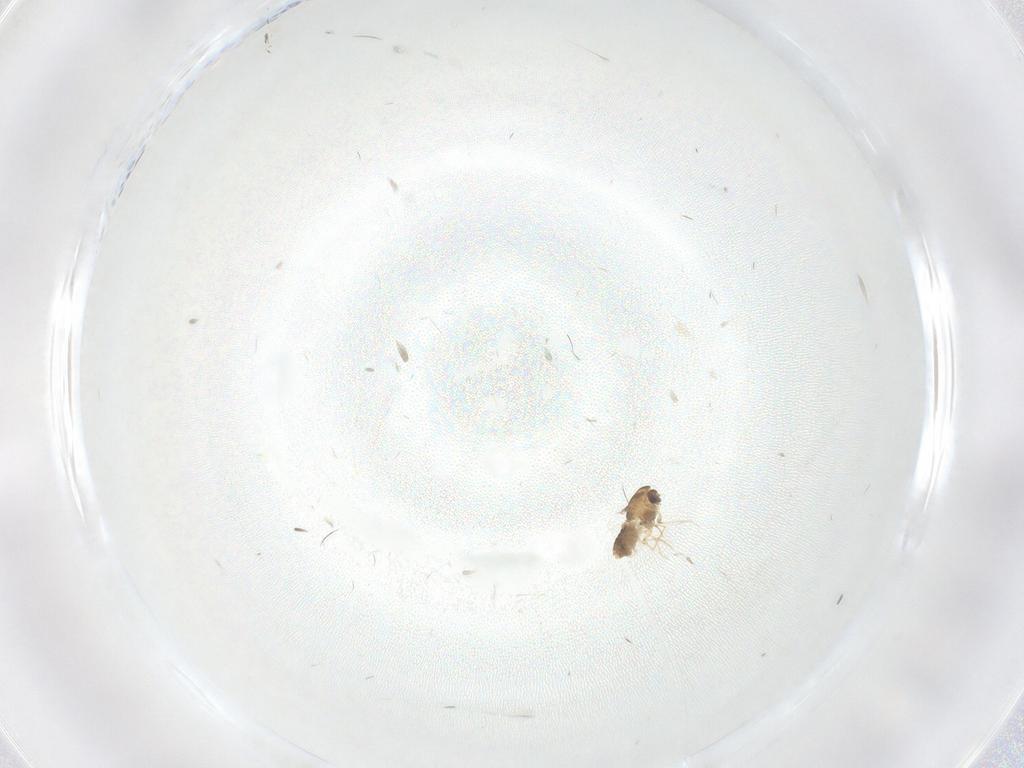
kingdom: Animalia
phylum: Arthropoda
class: Insecta
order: Diptera
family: Chironomidae
